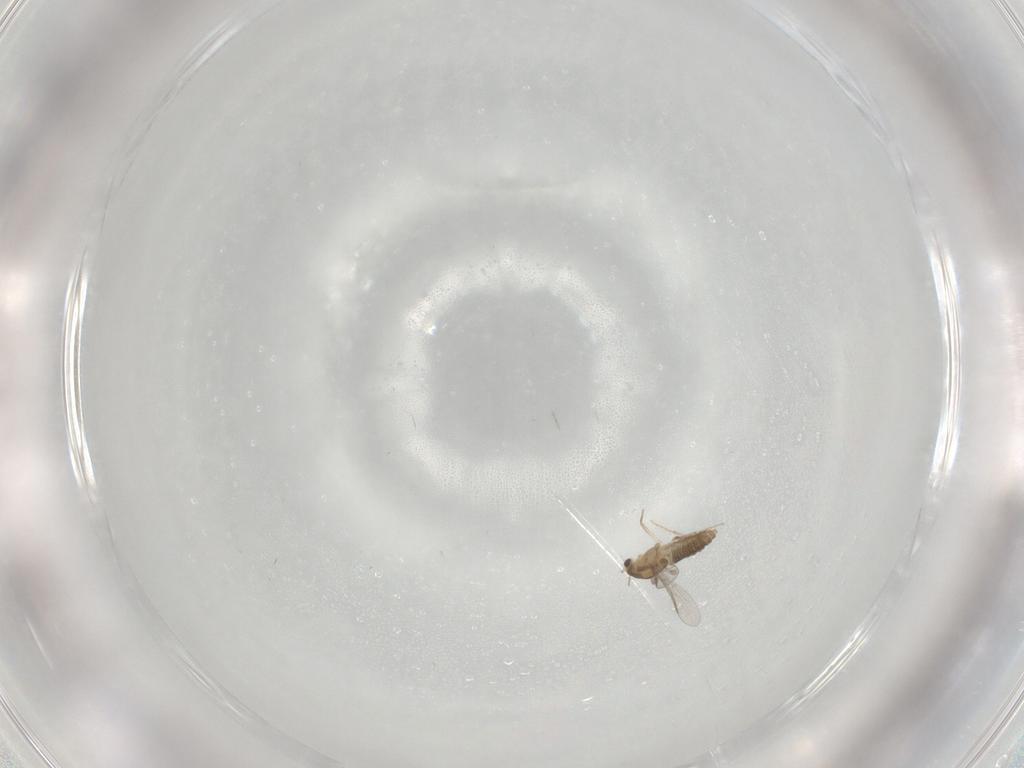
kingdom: Animalia
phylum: Arthropoda
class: Insecta
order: Diptera
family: Chironomidae
